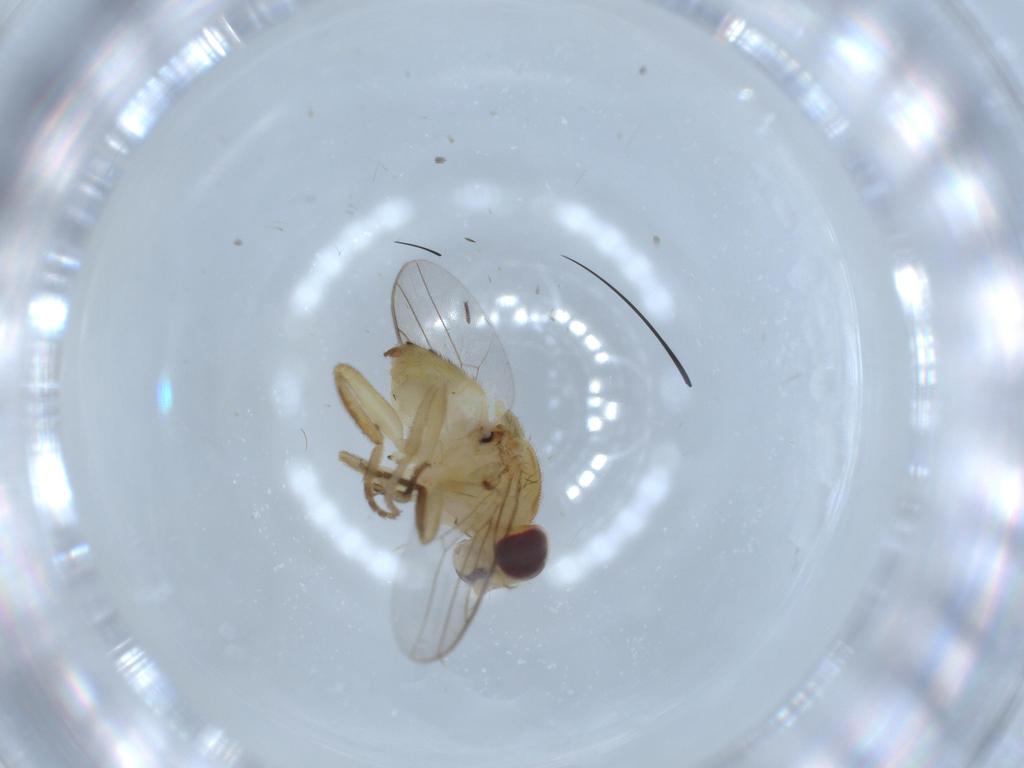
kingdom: Animalia
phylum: Arthropoda
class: Insecta
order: Diptera
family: Chloropidae
